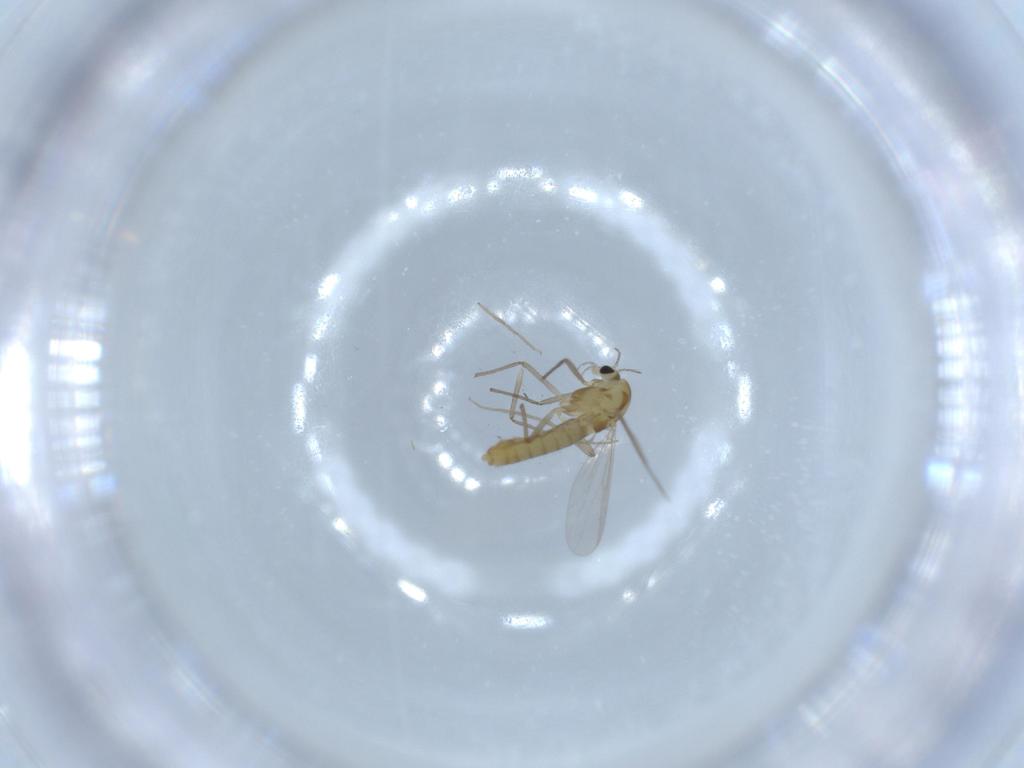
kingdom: Animalia
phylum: Arthropoda
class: Insecta
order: Diptera
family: Chironomidae
